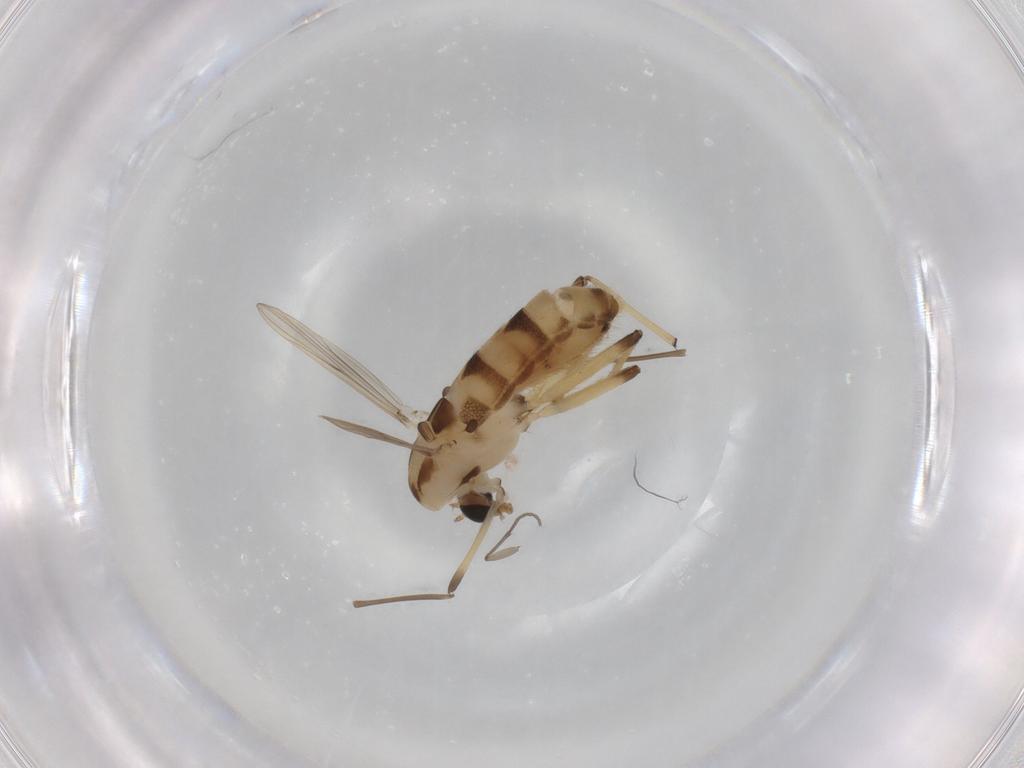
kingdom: Animalia
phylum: Arthropoda
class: Insecta
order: Diptera
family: Chironomidae
